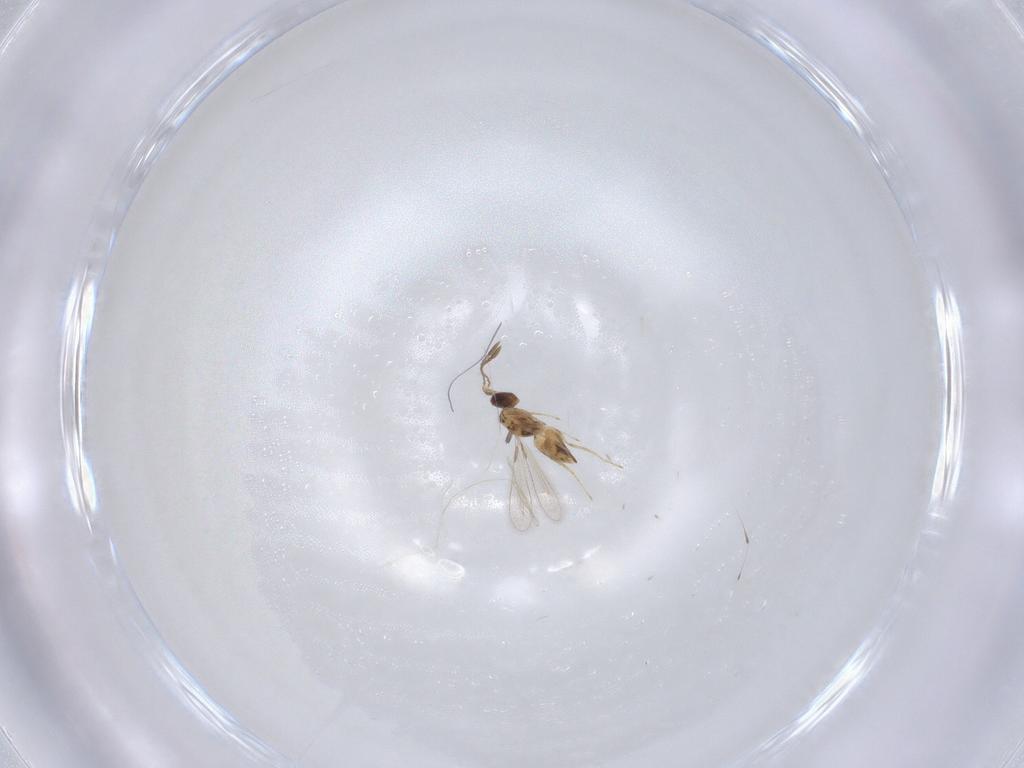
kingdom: Animalia
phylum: Arthropoda
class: Insecta
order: Hymenoptera
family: Mymaridae
